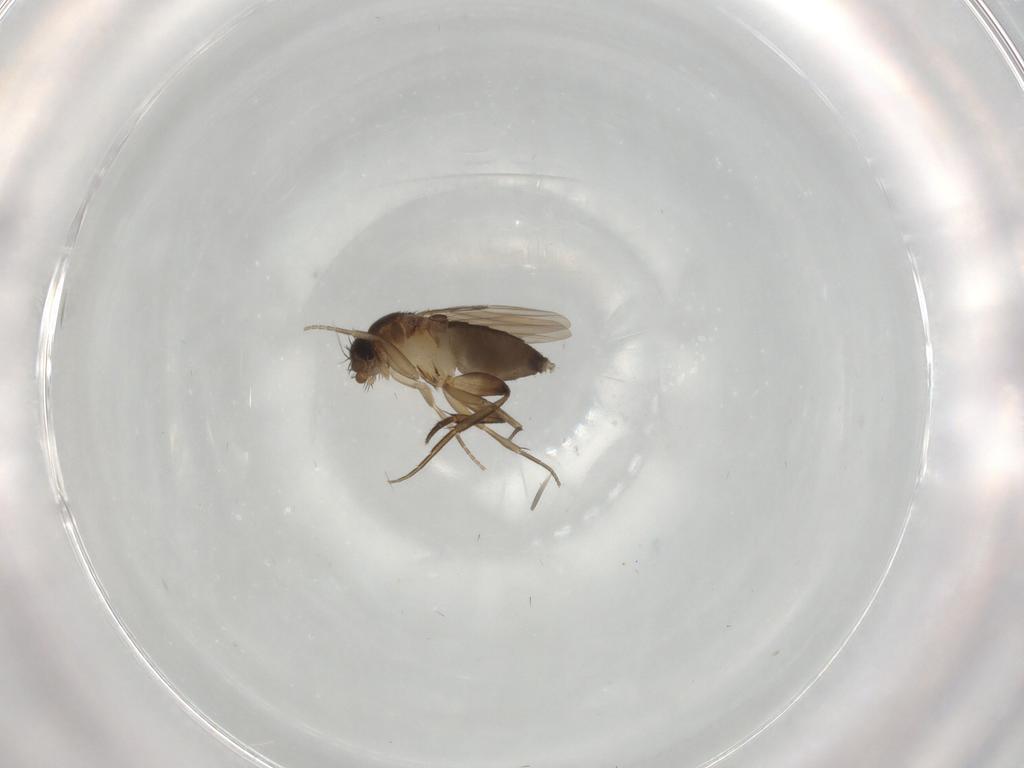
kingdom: Animalia
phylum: Arthropoda
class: Insecta
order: Diptera
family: Phoridae
